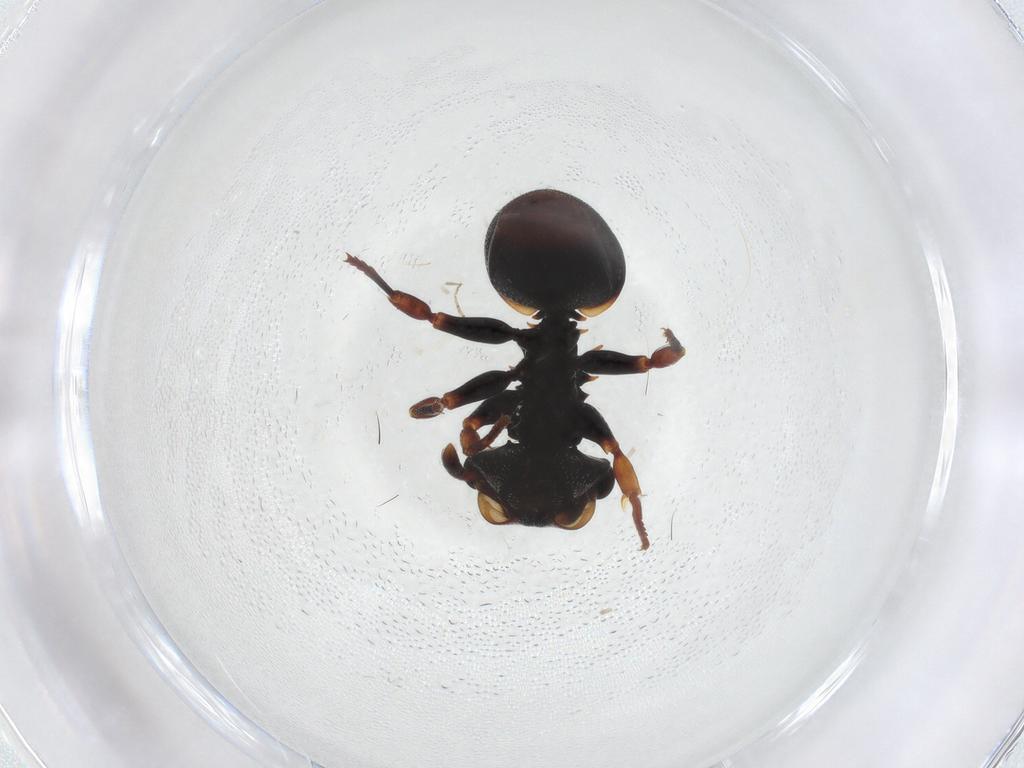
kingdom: Animalia
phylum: Arthropoda
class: Insecta
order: Hymenoptera
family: Formicidae
